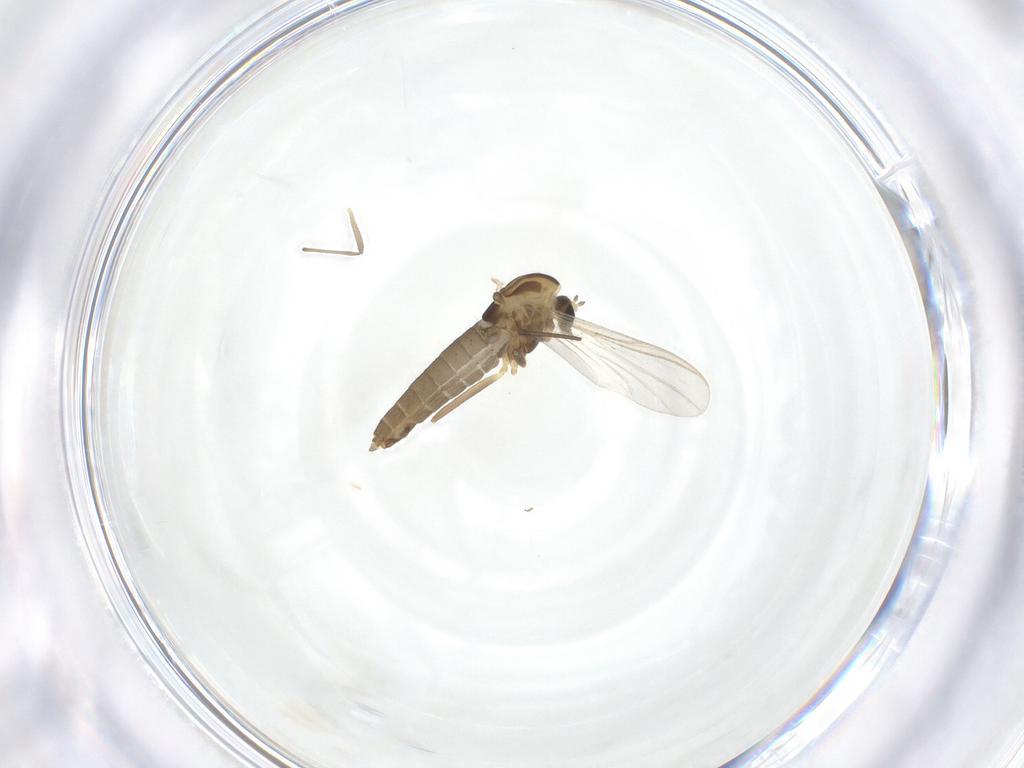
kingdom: Animalia
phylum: Arthropoda
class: Insecta
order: Diptera
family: Chironomidae
